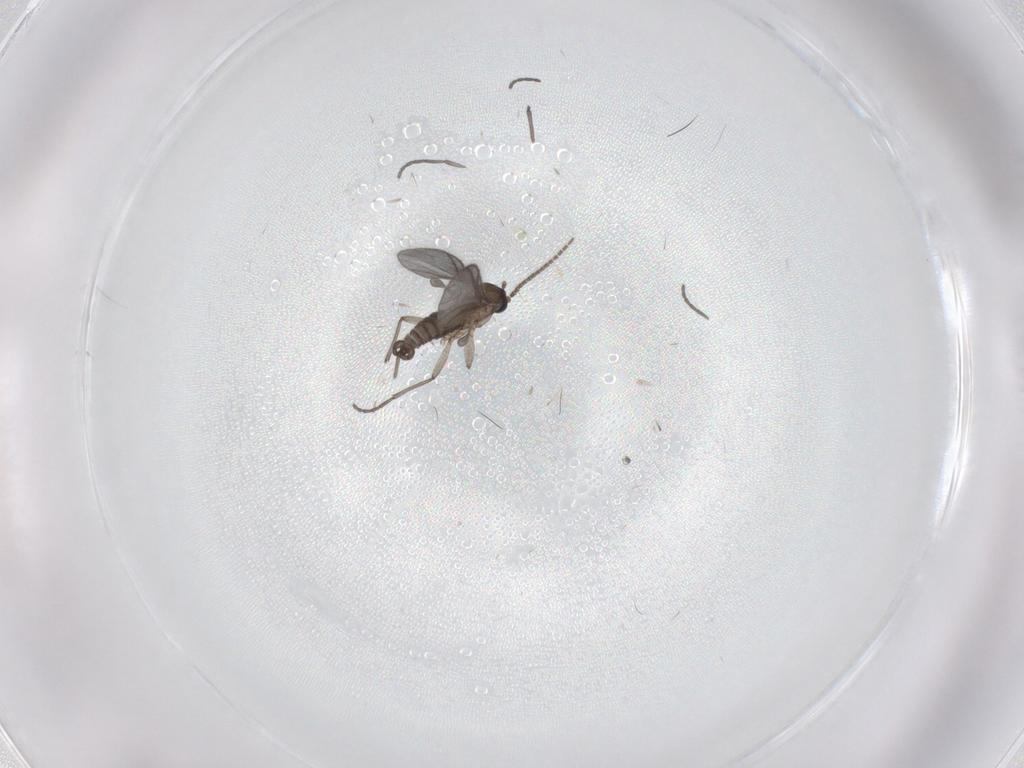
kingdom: Animalia
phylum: Arthropoda
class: Insecta
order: Diptera
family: Sciaridae
